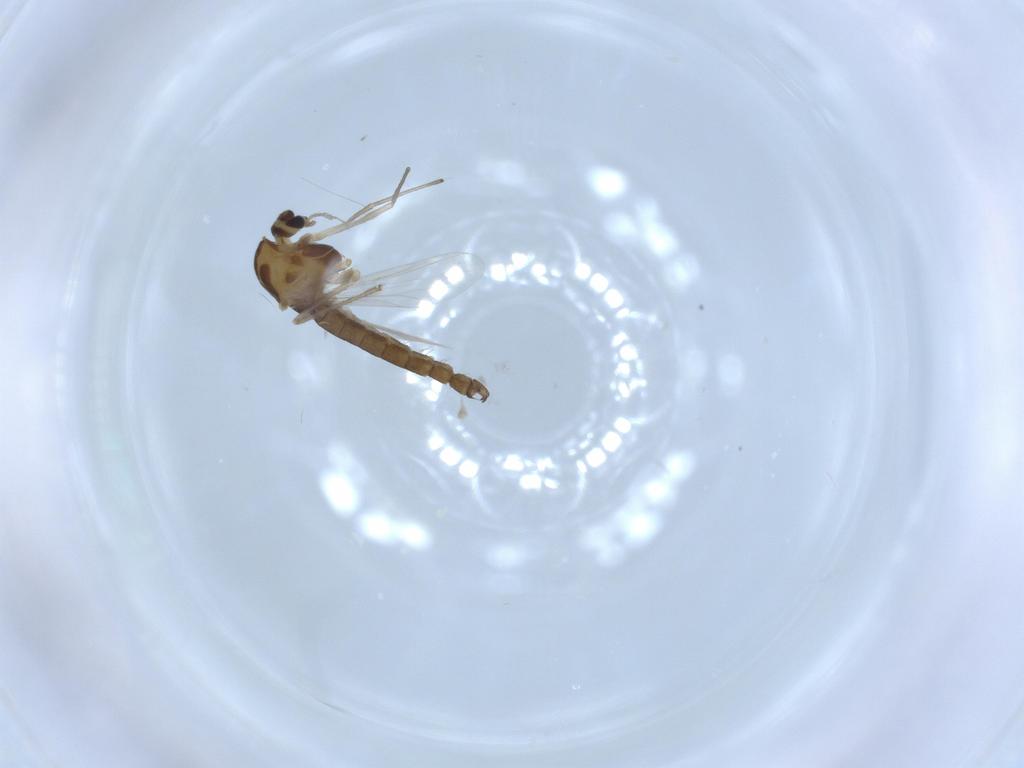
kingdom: Animalia
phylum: Arthropoda
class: Insecta
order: Diptera
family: Chironomidae
